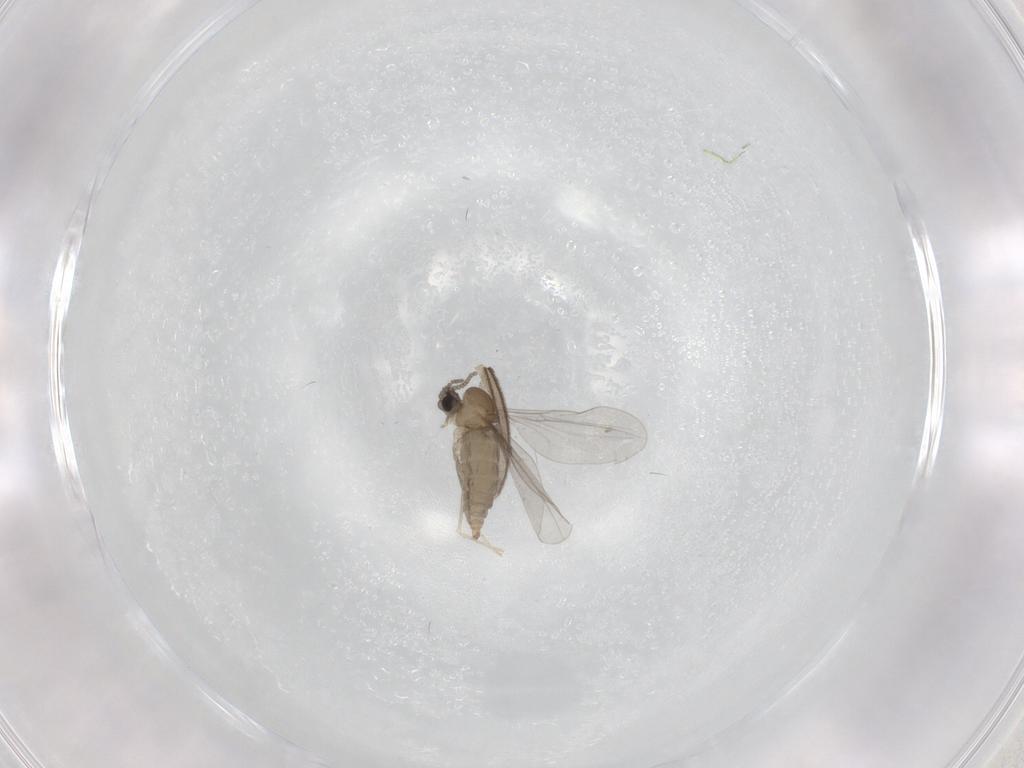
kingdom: Animalia
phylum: Arthropoda
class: Insecta
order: Diptera
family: Cecidomyiidae
